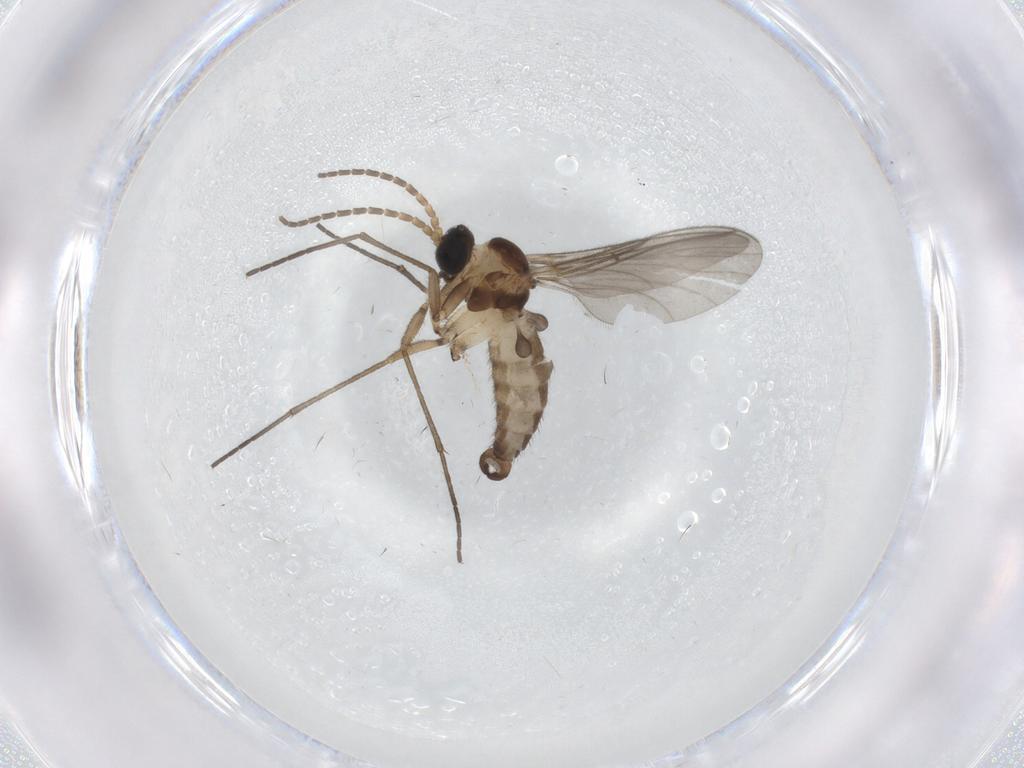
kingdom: Animalia
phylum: Arthropoda
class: Insecta
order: Diptera
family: Sciaridae
